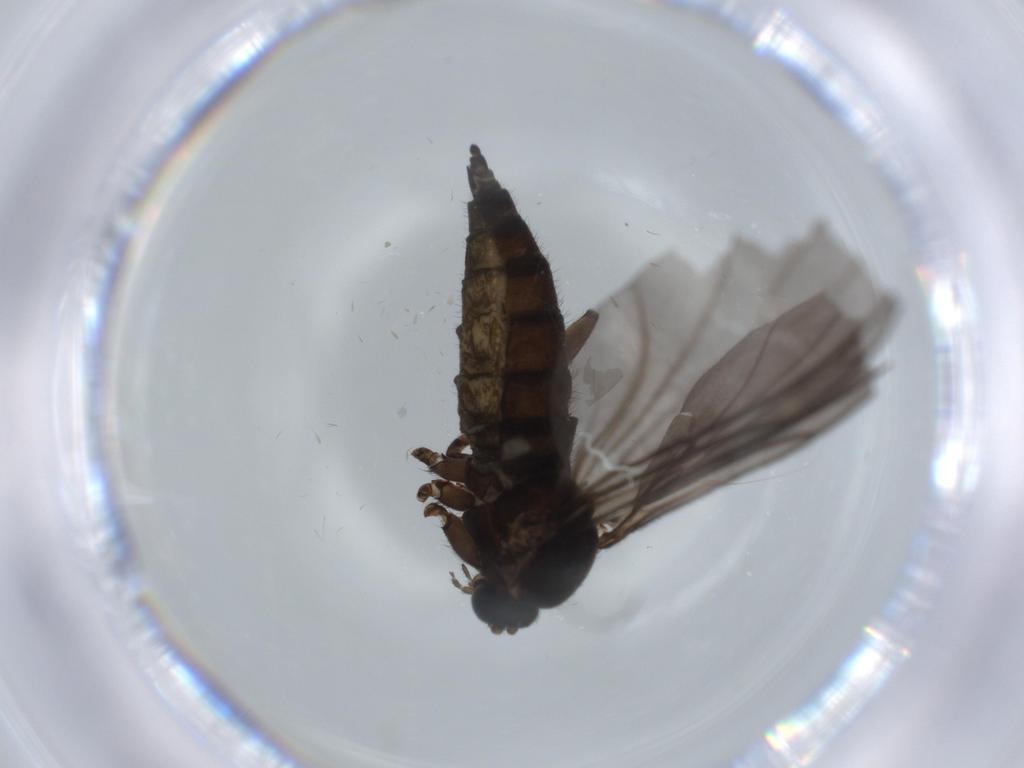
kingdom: Animalia
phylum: Arthropoda
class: Insecta
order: Diptera
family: Sciaridae
